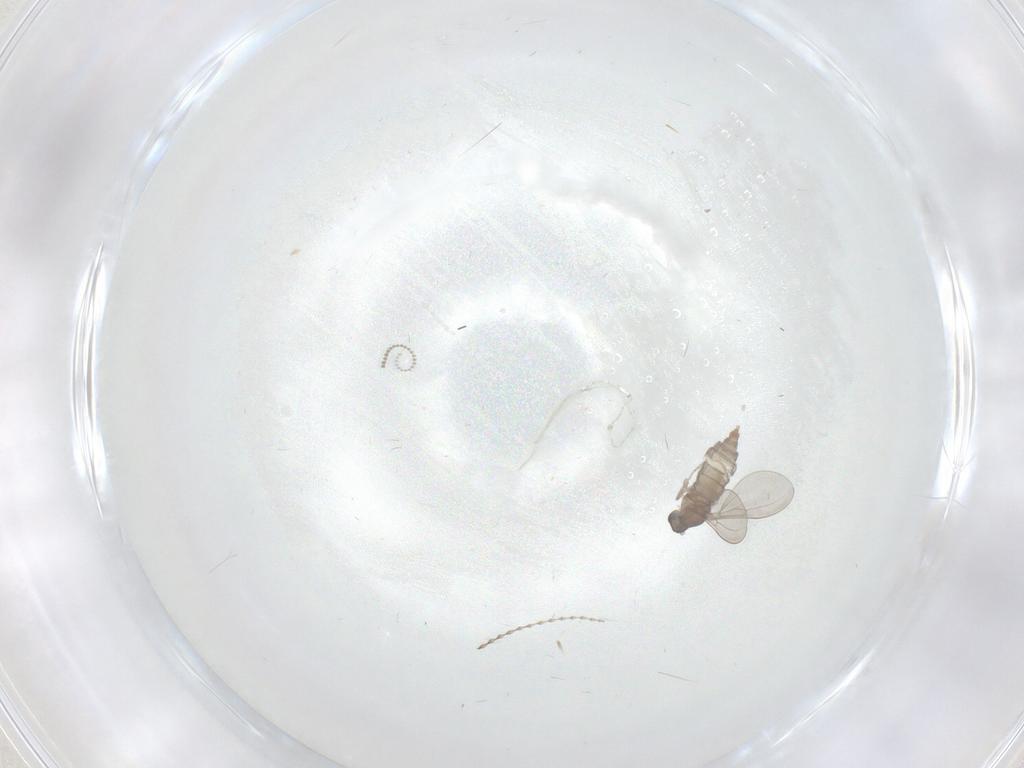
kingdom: Animalia
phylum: Arthropoda
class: Insecta
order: Diptera
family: Cecidomyiidae
